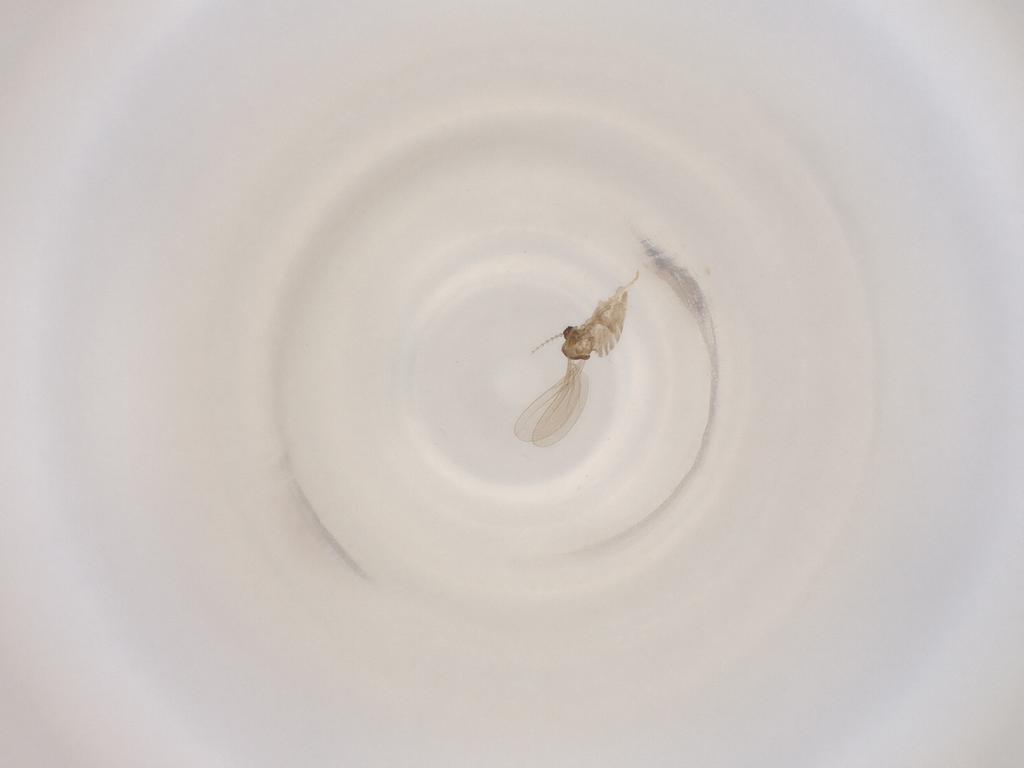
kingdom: Animalia
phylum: Arthropoda
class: Insecta
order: Diptera
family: Cecidomyiidae
